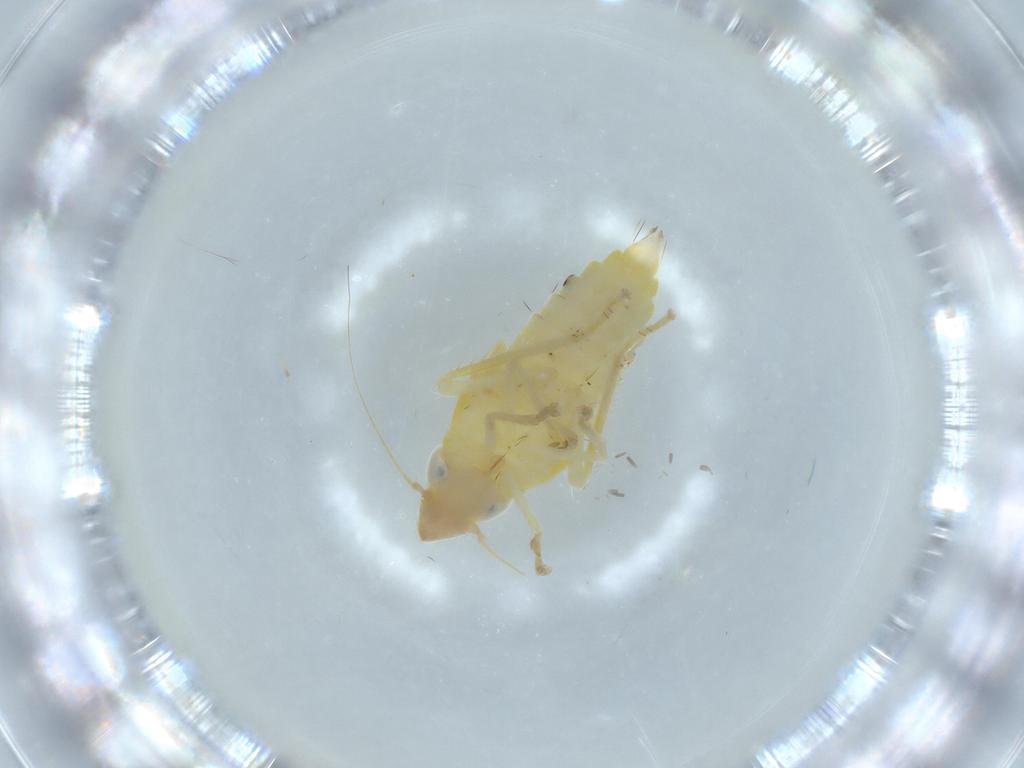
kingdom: Animalia
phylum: Arthropoda
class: Insecta
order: Hemiptera
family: Cicadellidae
